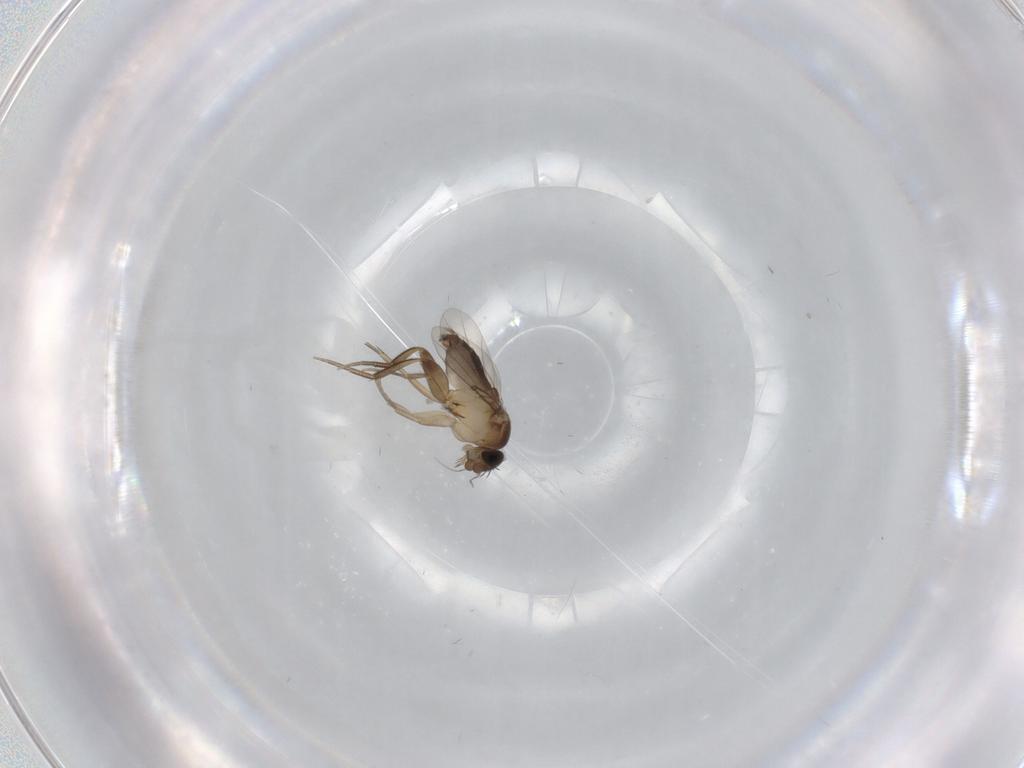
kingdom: Animalia
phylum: Arthropoda
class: Insecta
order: Diptera
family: Phoridae
